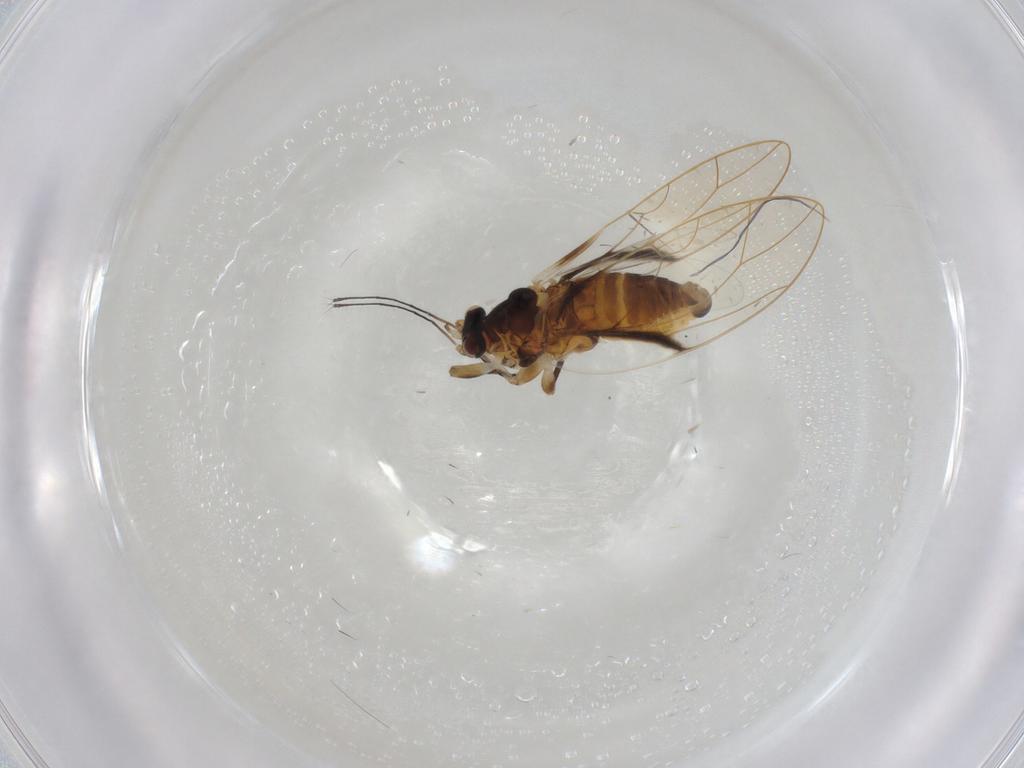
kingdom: Animalia
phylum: Arthropoda
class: Insecta
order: Hemiptera
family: Psylloidea_incertae_sedis
